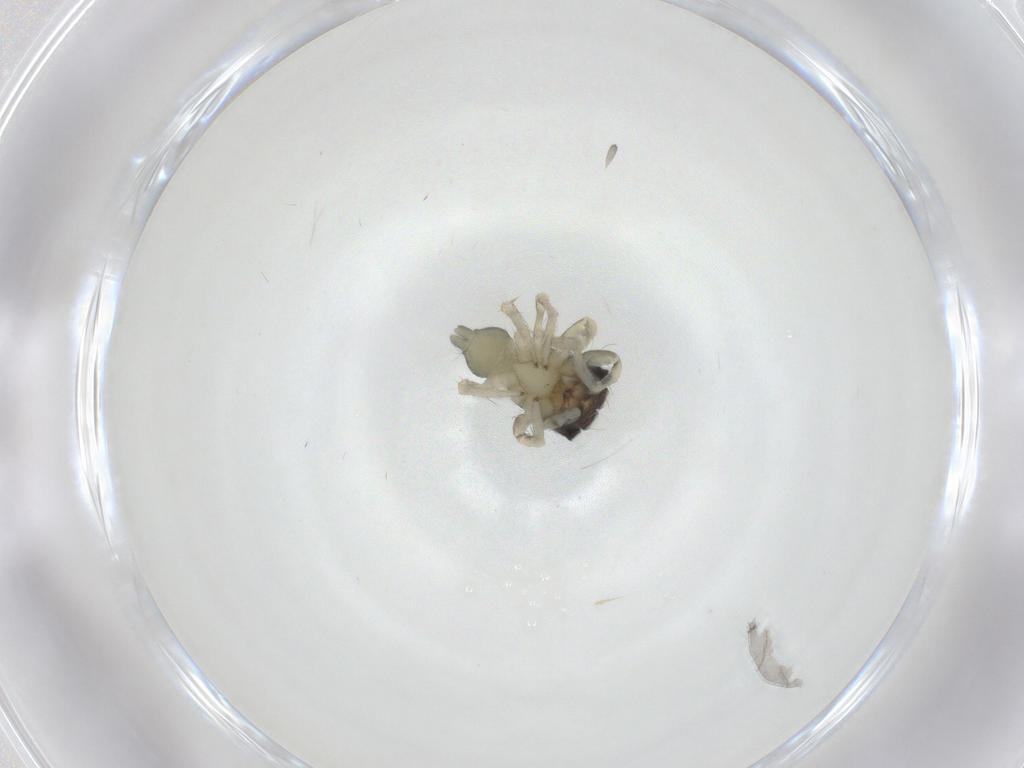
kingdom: Animalia
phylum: Arthropoda
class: Arachnida
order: Araneae
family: Salticidae
